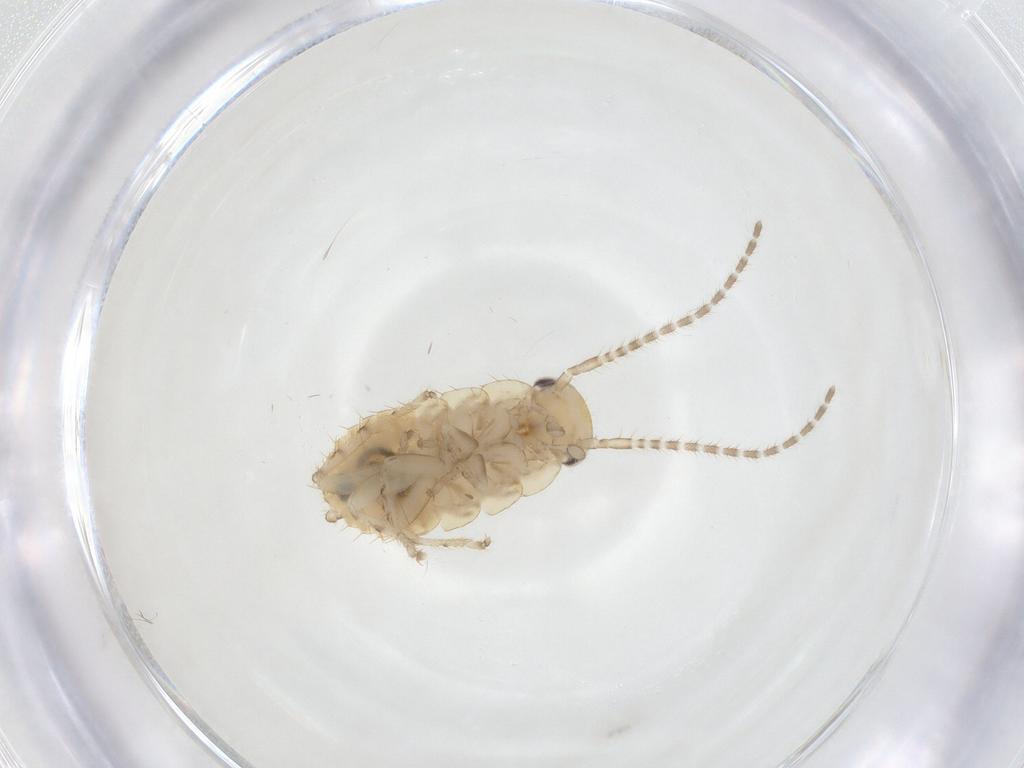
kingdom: Animalia
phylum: Arthropoda
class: Insecta
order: Blattodea
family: Ectobiidae
